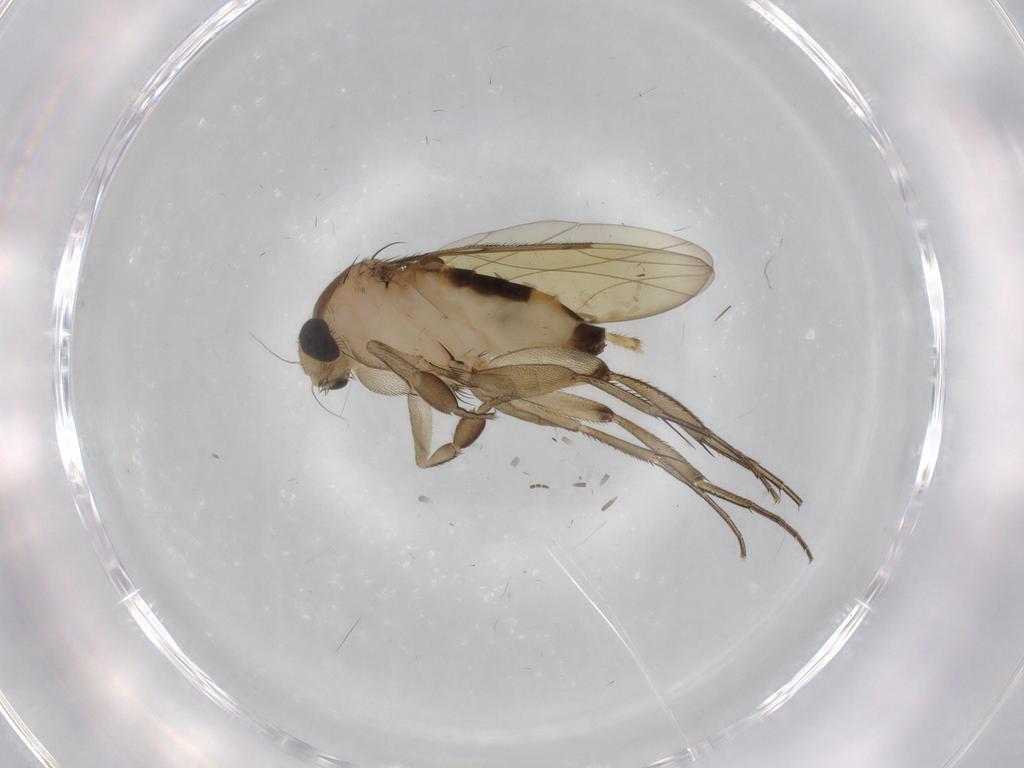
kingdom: Animalia
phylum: Arthropoda
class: Insecta
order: Diptera
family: Phoridae
